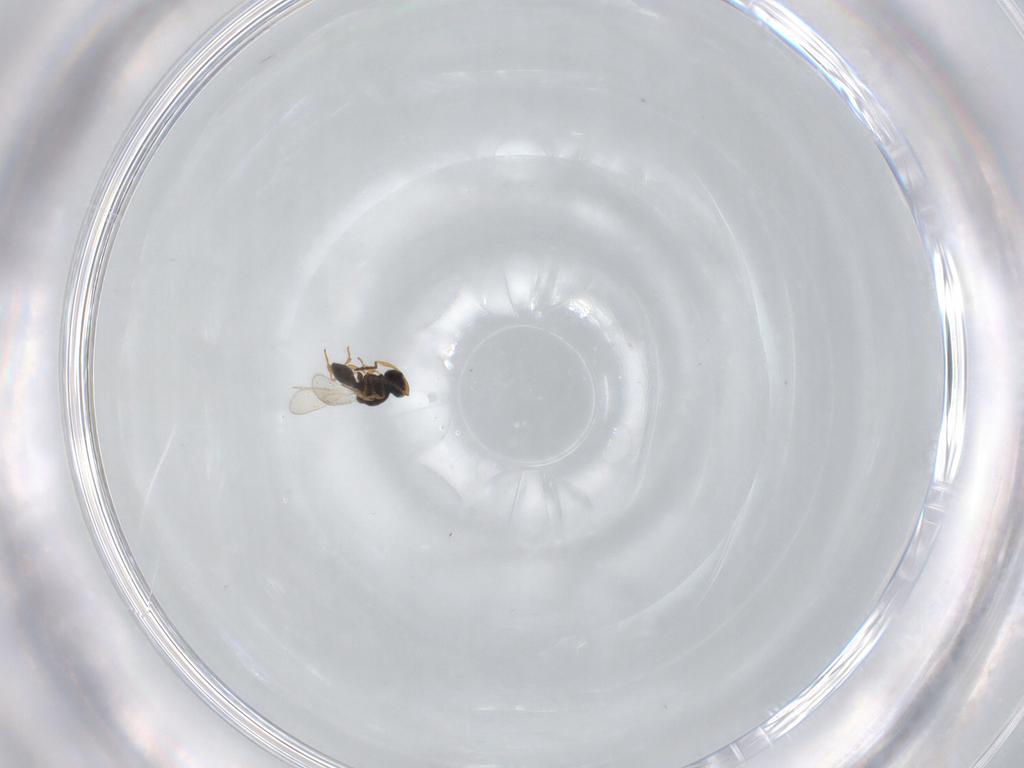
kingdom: Animalia
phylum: Arthropoda
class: Insecta
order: Hymenoptera
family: Platygastridae
